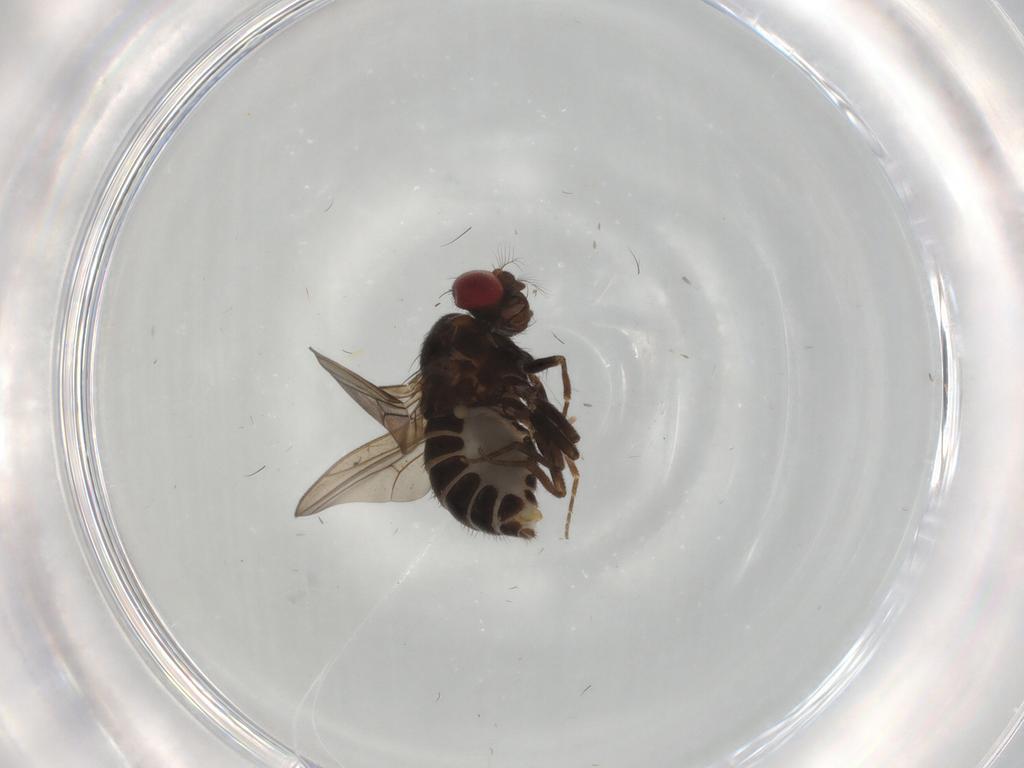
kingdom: Animalia
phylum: Arthropoda
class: Insecta
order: Diptera
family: Drosophilidae
